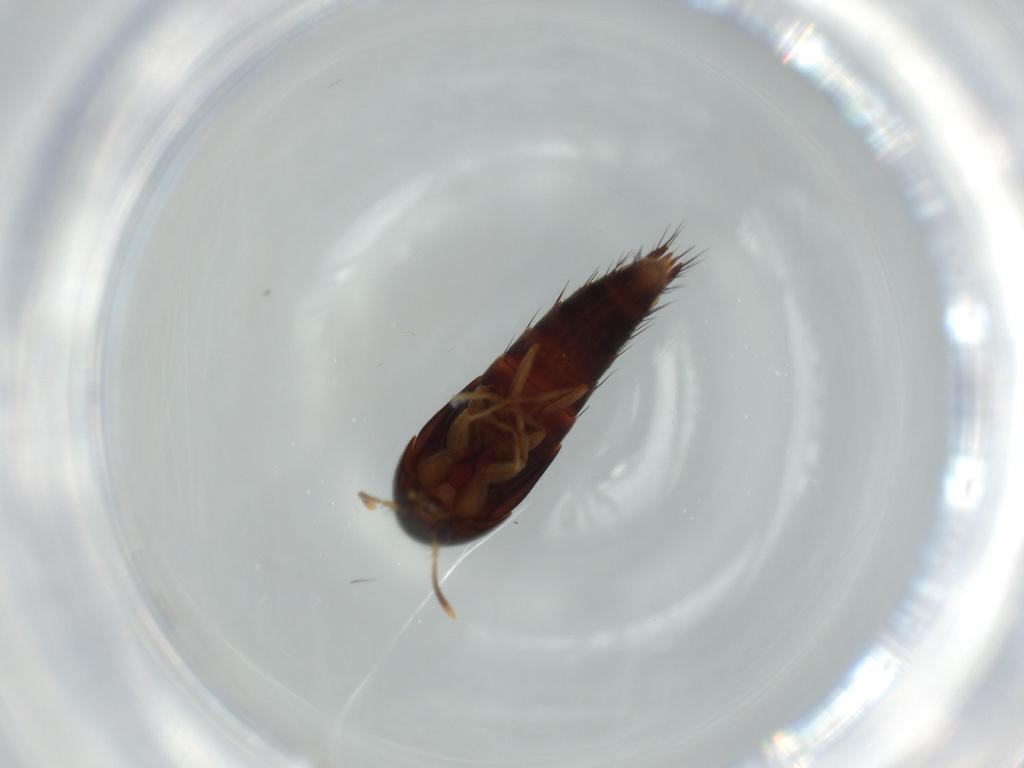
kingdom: Animalia
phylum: Arthropoda
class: Insecta
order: Coleoptera
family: Staphylinidae
